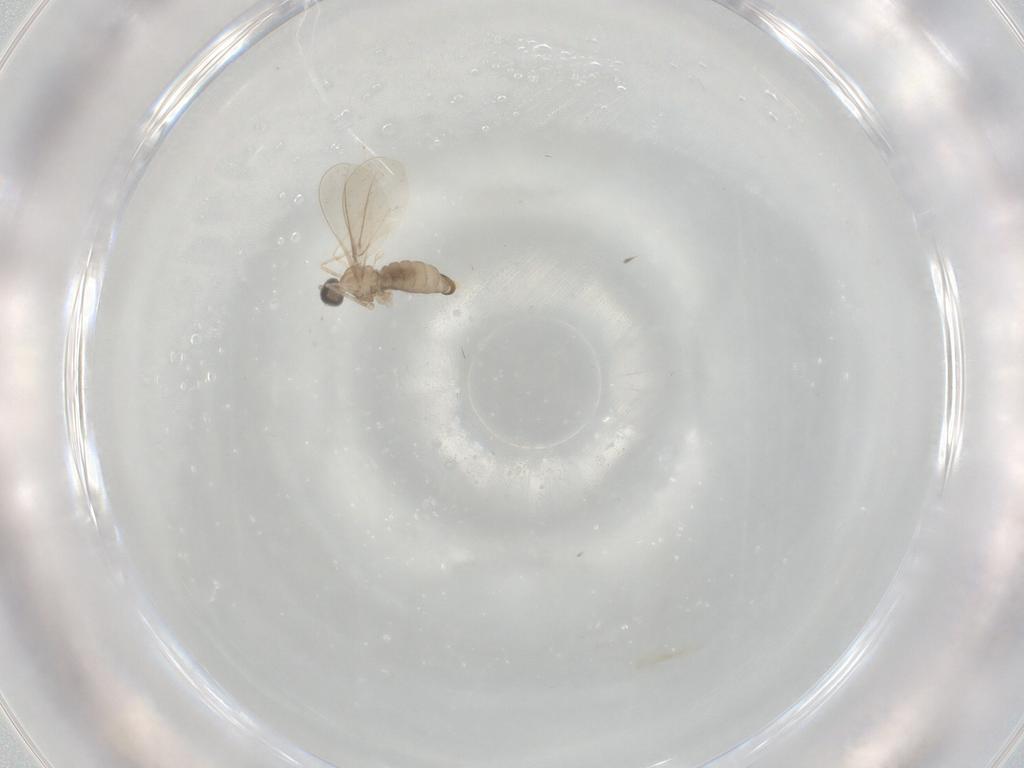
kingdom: Animalia
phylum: Arthropoda
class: Insecta
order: Diptera
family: Cecidomyiidae
